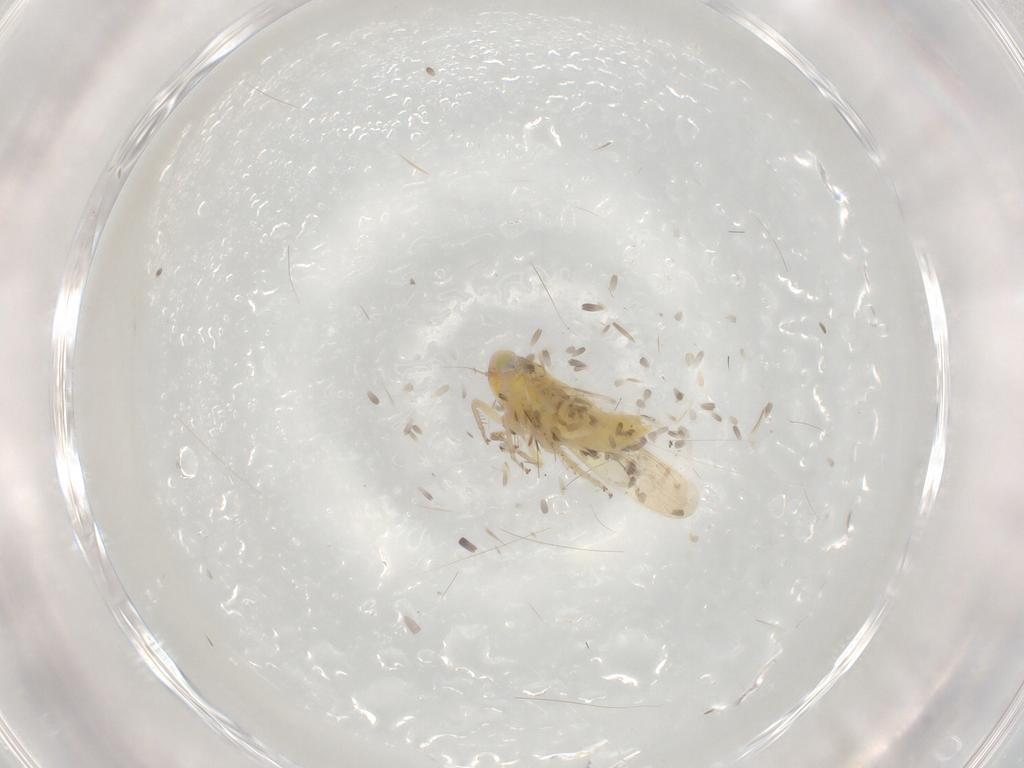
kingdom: Animalia
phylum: Arthropoda
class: Insecta
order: Hemiptera
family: Cicadellidae
